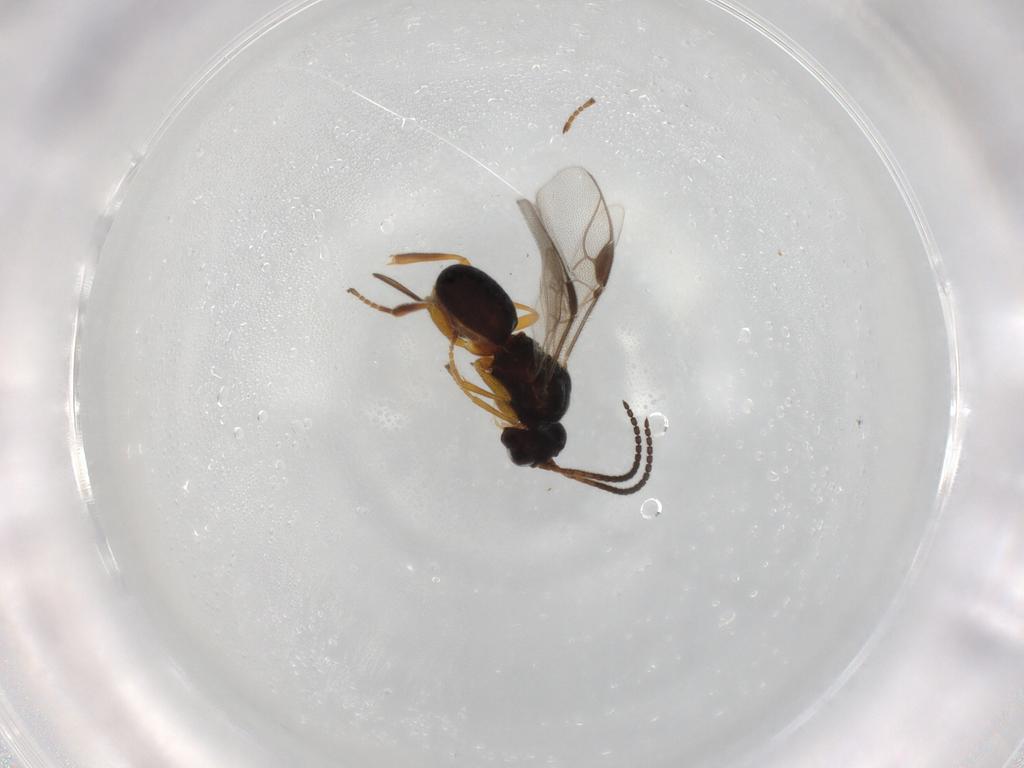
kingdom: Animalia
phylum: Arthropoda
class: Insecta
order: Hymenoptera
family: Braconidae
